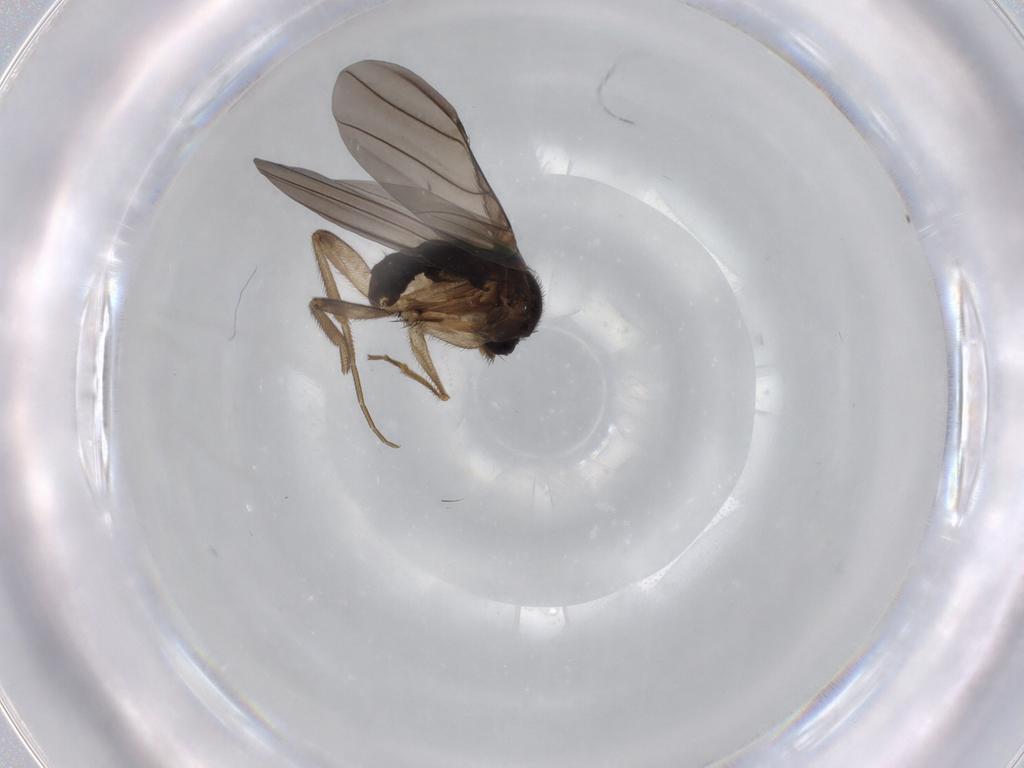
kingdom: Animalia
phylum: Arthropoda
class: Insecta
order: Diptera
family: Phoridae
